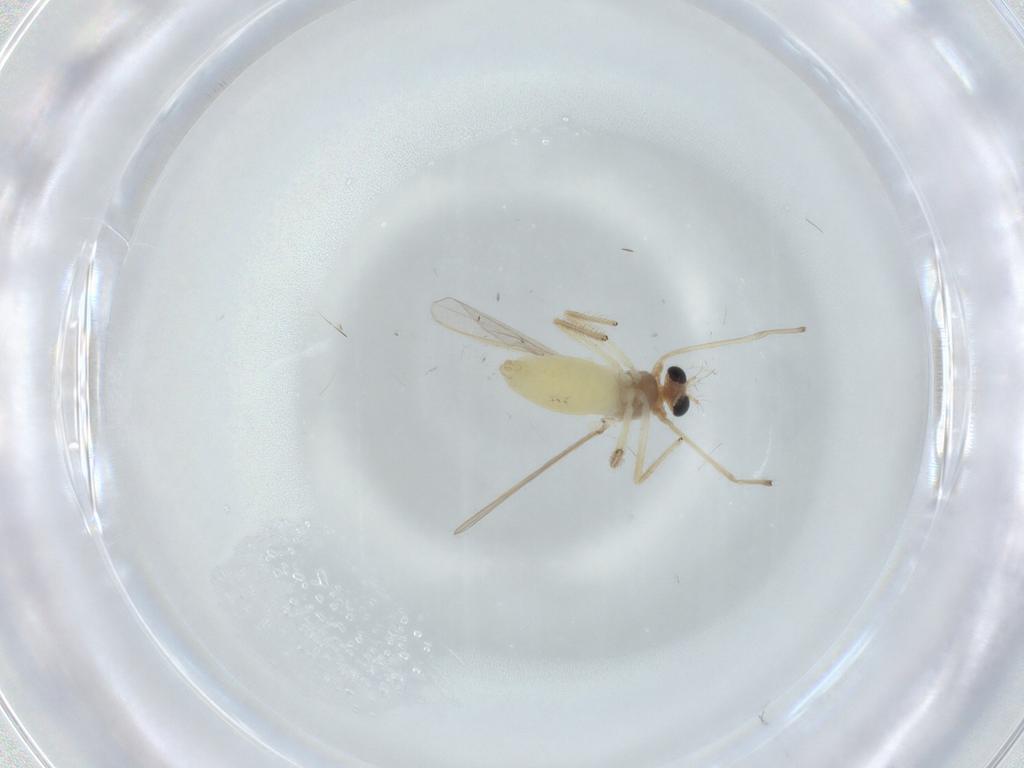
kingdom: Animalia
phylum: Arthropoda
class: Insecta
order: Diptera
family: Chironomidae
